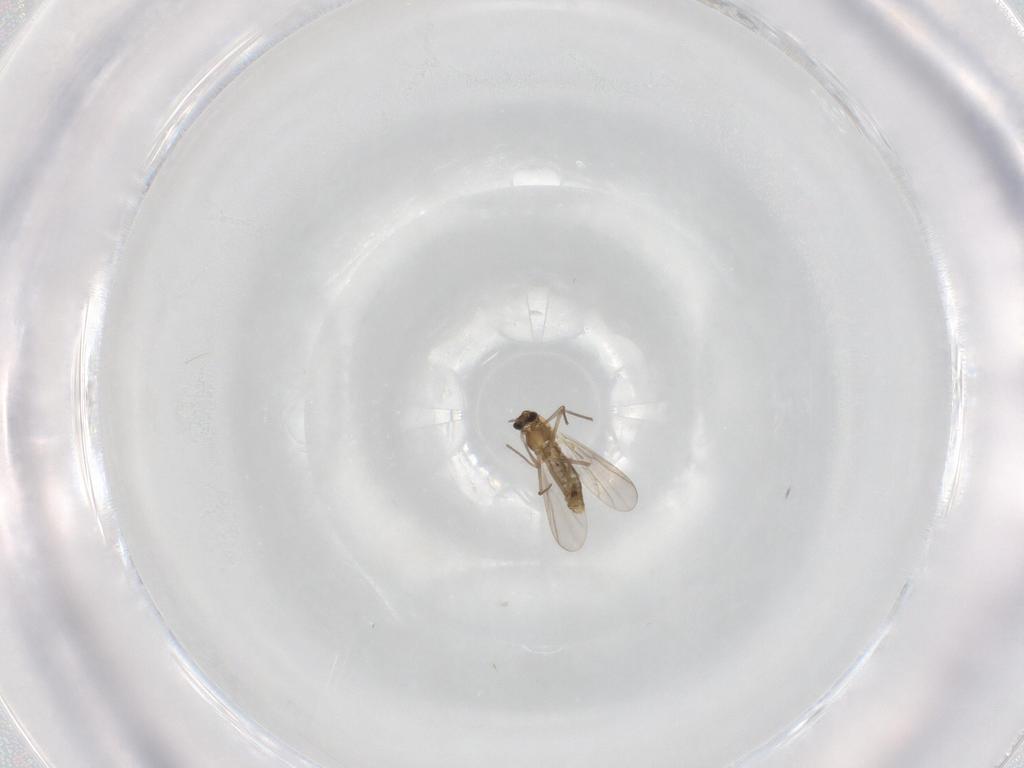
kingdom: Animalia
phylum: Arthropoda
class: Insecta
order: Diptera
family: Chironomidae
